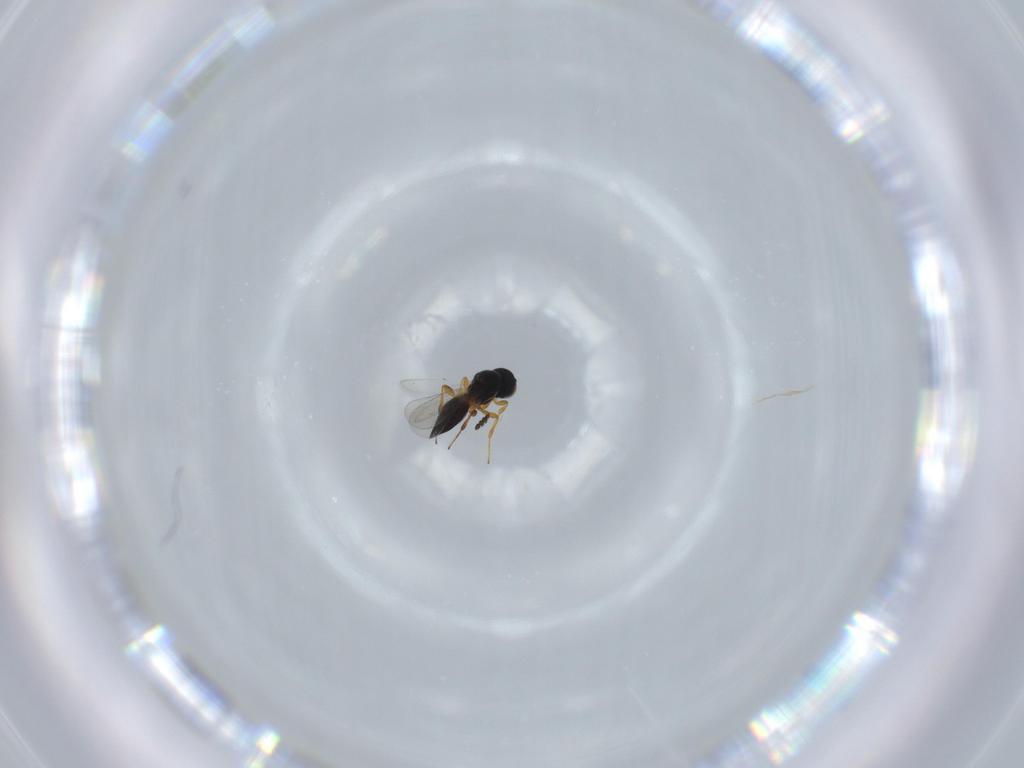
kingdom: Animalia
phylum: Arthropoda
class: Insecta
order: Hymenoptera
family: Platygastridae
